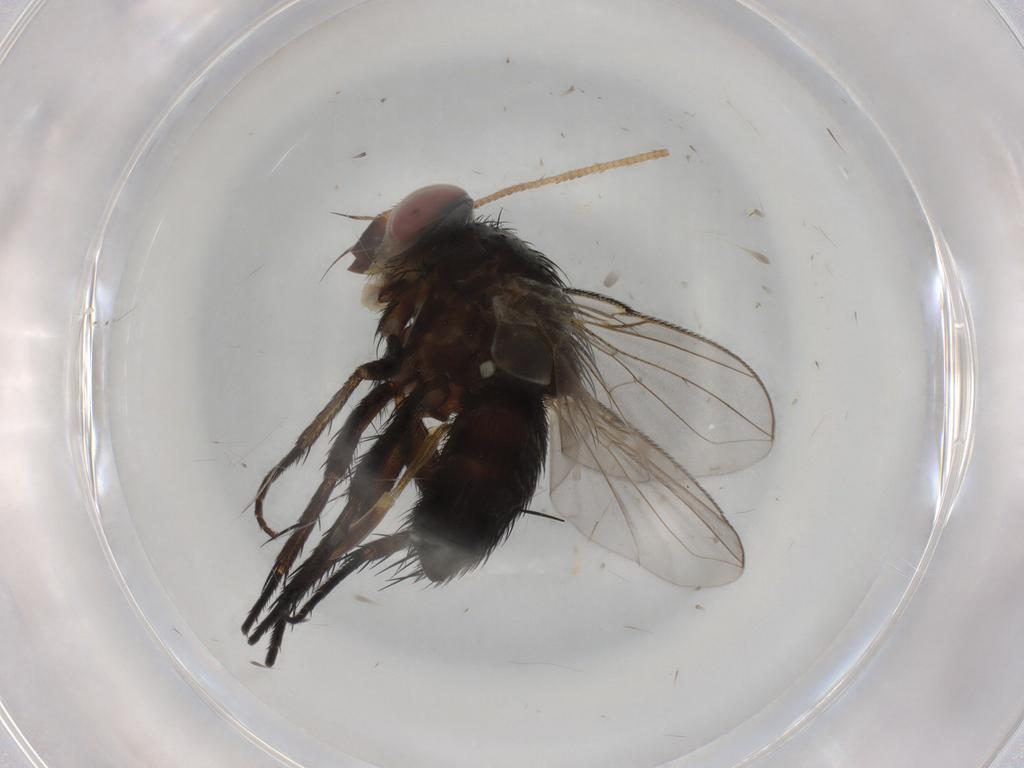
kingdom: Animalia
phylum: Arthropoda
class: Insecta
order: Diptera
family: Tachinidae
